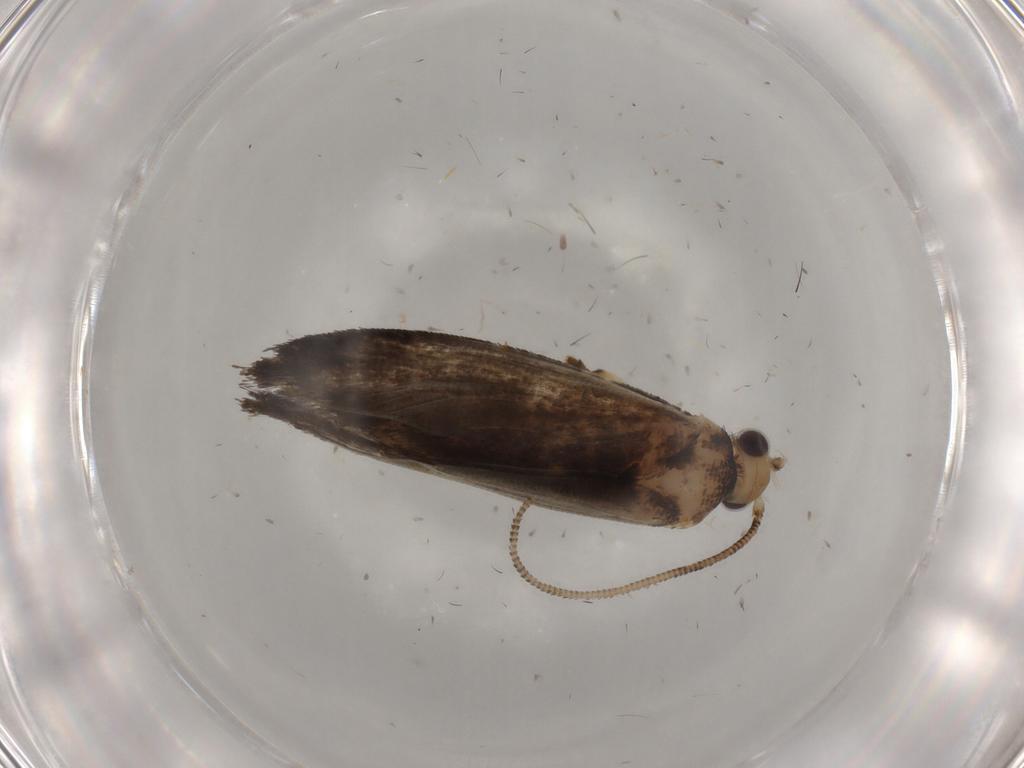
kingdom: Animalia
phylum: Arthropoda
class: Insecta
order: Lepidoptera
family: Tineidae
